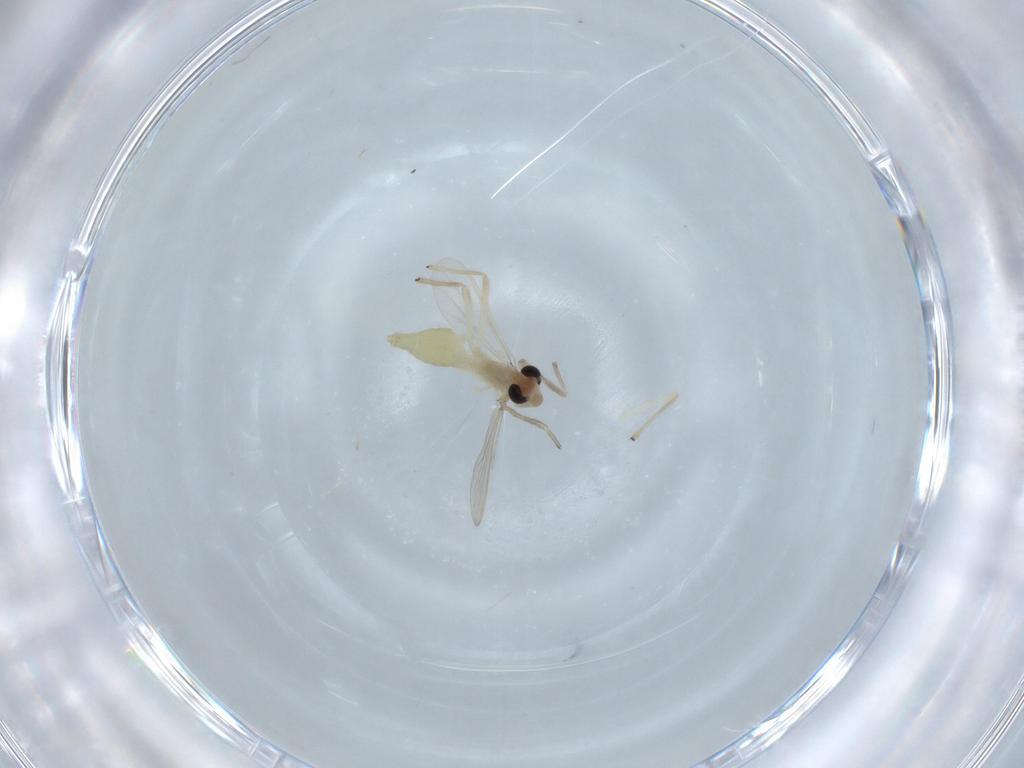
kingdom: Animalia
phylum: Arthropoda
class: Insecta
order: Diptera
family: Chironomidae
